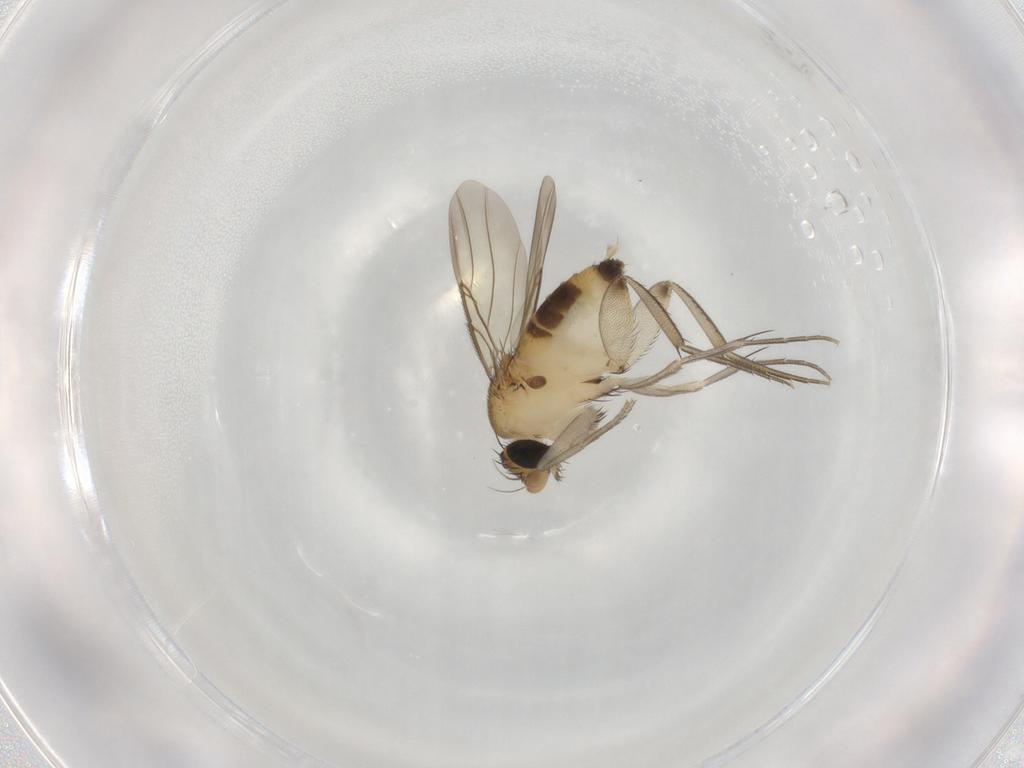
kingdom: Animalia
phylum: Arthropoda
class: Insecta
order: Diptera
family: Phoridae
